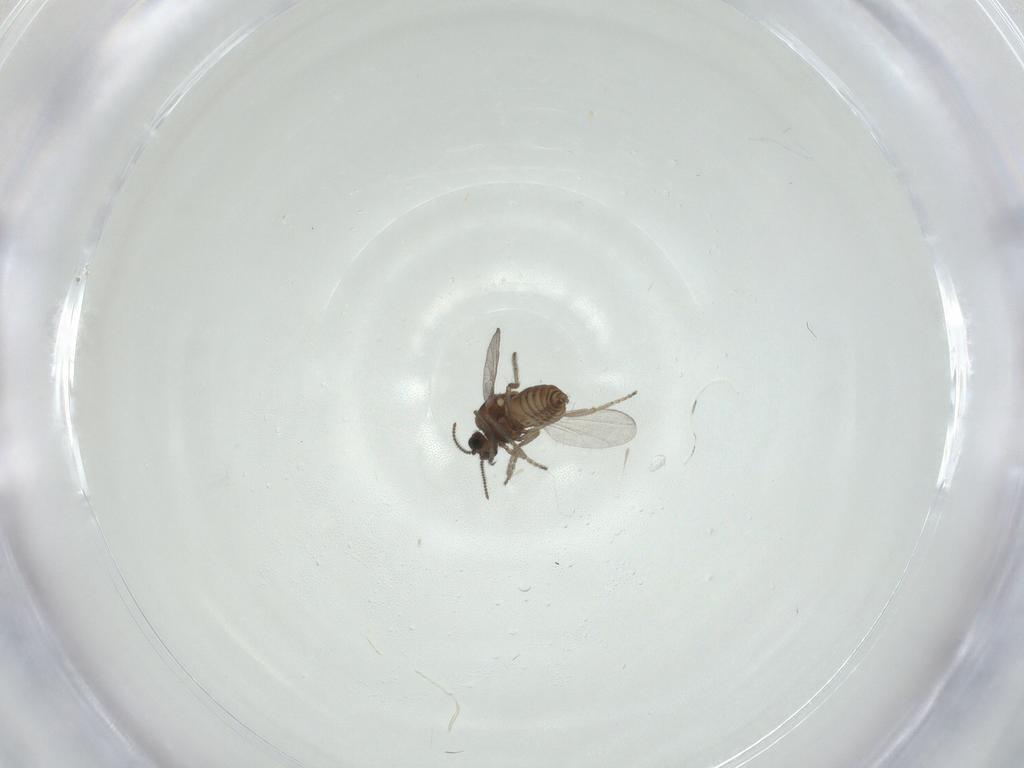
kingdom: Animalia
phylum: Arthropoda
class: Insecta
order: Diptera
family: Ceratopogonidae
